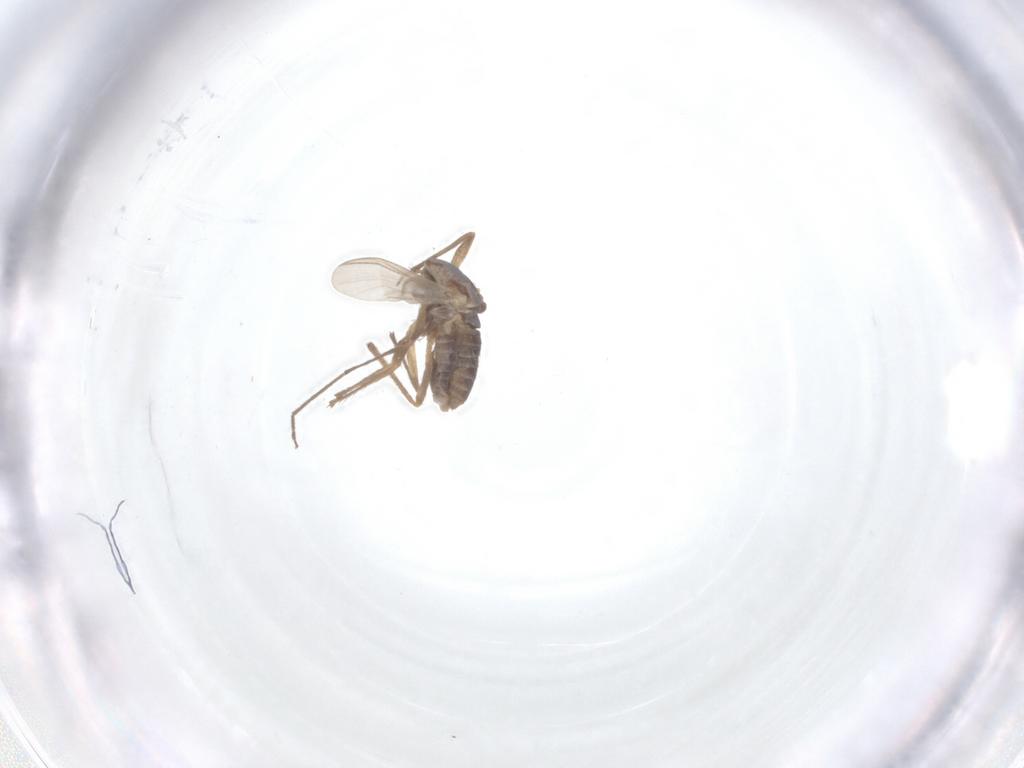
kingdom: Animalia
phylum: Arthropoda
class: Insecta
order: Diptera
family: Chironomidae
